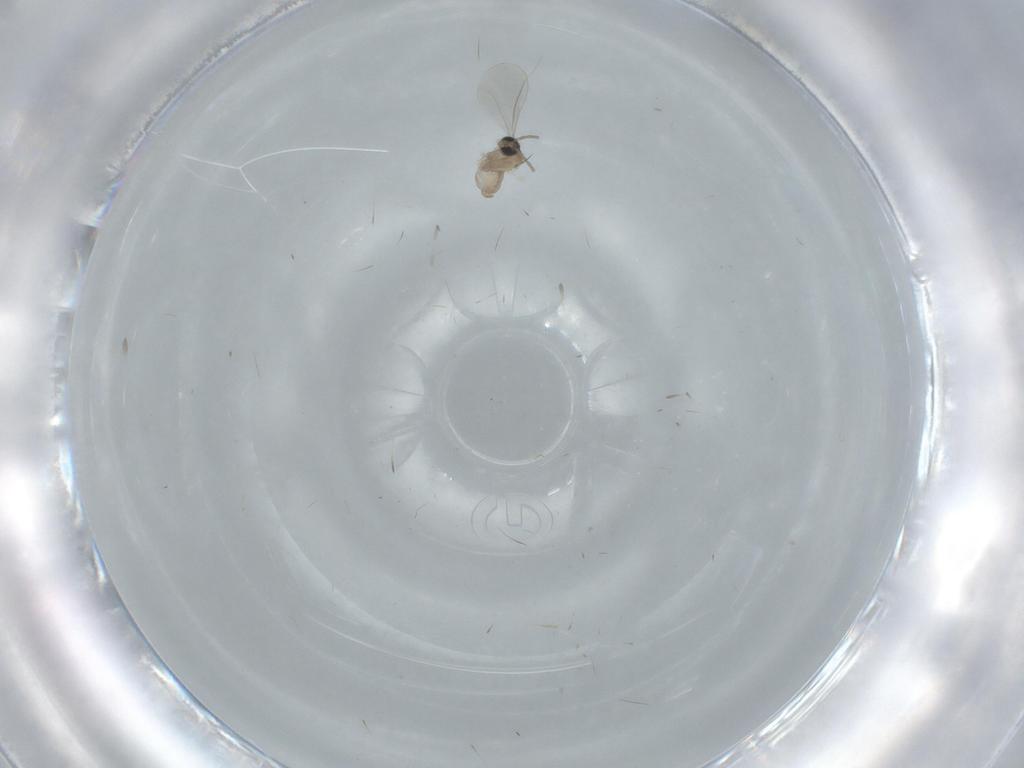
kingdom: Animalia
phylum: Arthropoda
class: Insecta
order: Diptera
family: Cecidomyiidae
